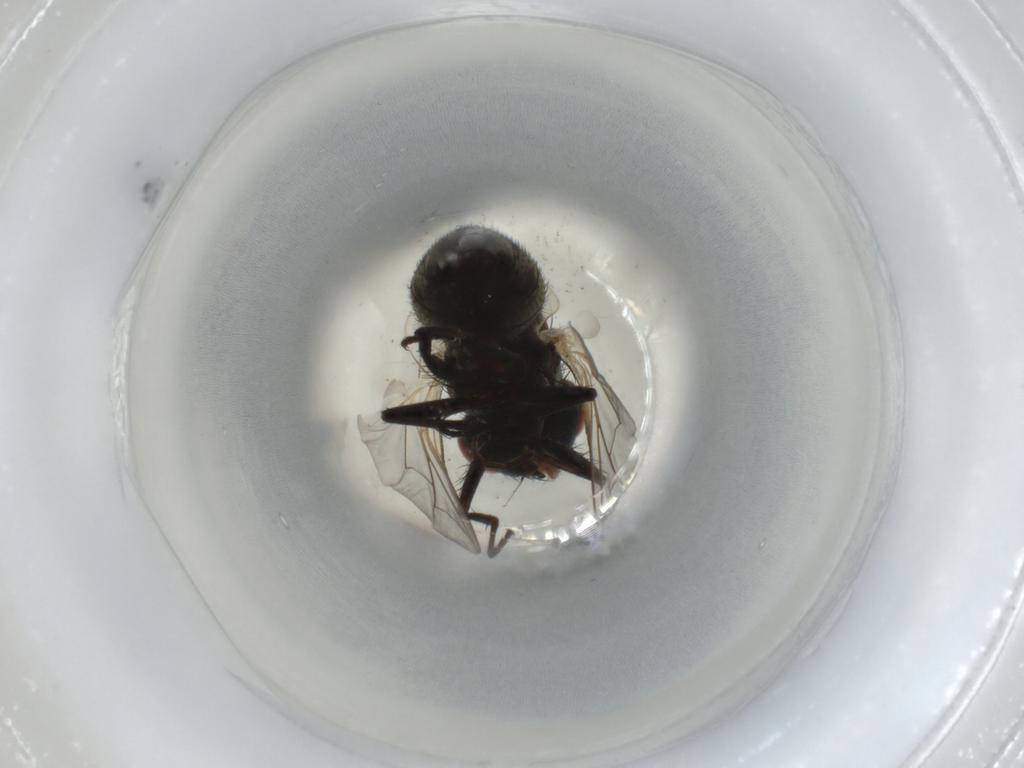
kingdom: Animalia
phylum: Arthropoda
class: Insecta
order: Diptera
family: Sarcophagidae
